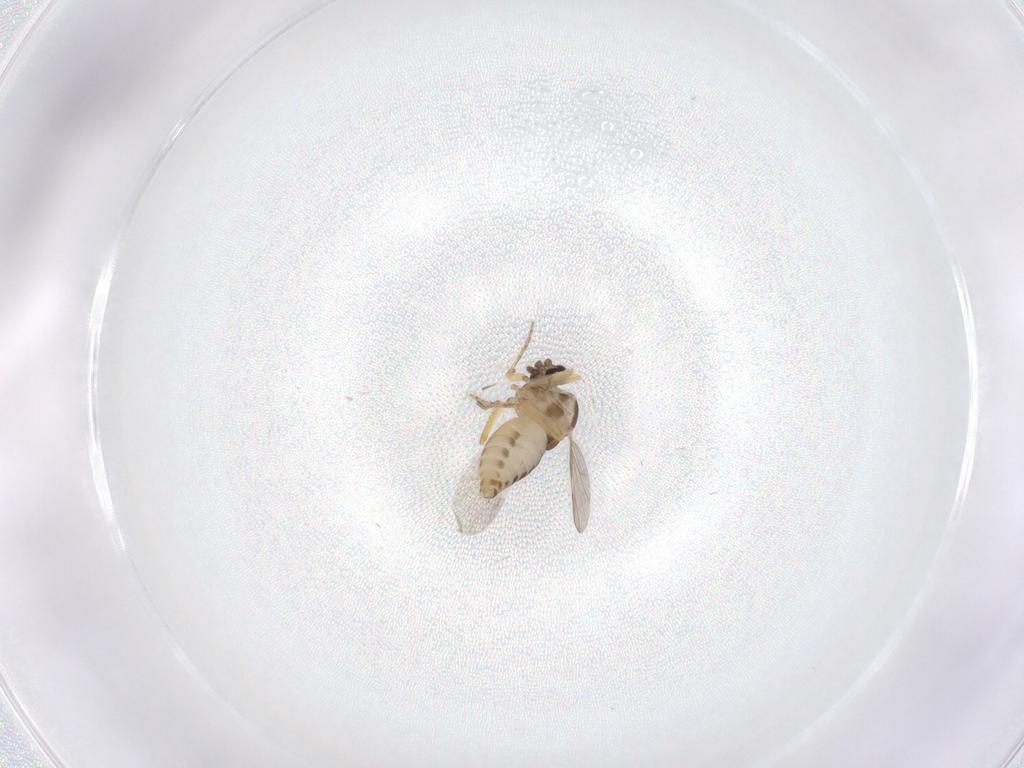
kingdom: Animalia
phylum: Arthropoda
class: Insecta
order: Diptera
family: Ceratopogonidae
